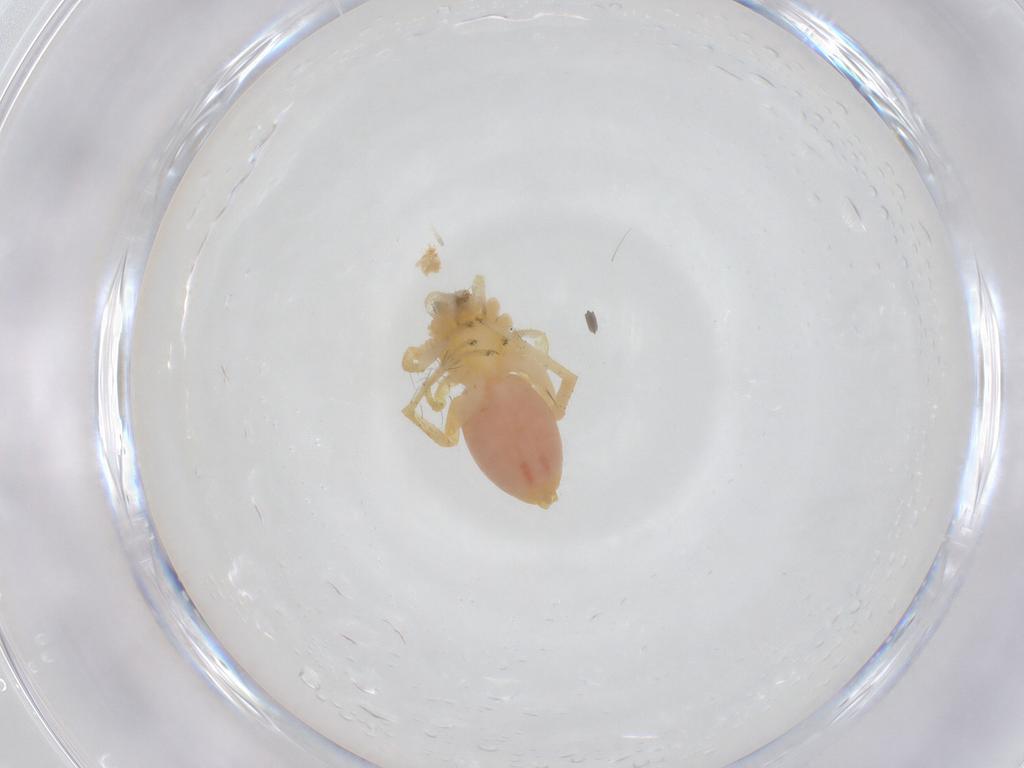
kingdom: Animalia
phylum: Arthropoda
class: Arachnida
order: Araneae
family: Anyphaenidae
